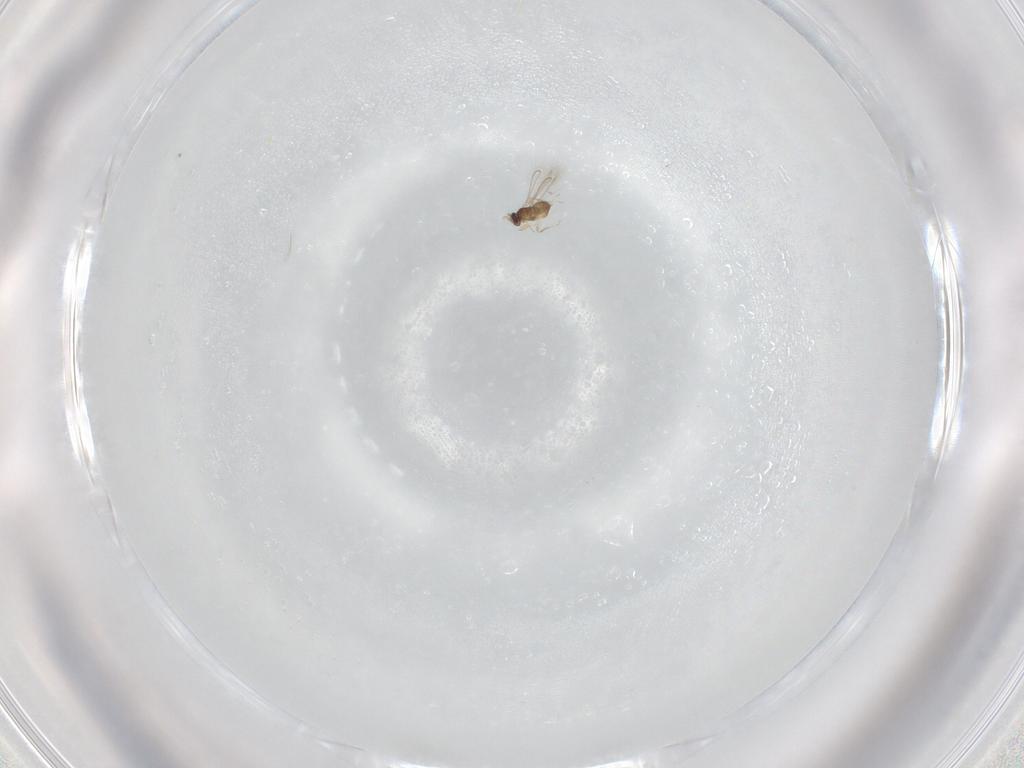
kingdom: Animalia
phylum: Arthropoda
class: Insecta
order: Hymenoptera
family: Mymaridae
